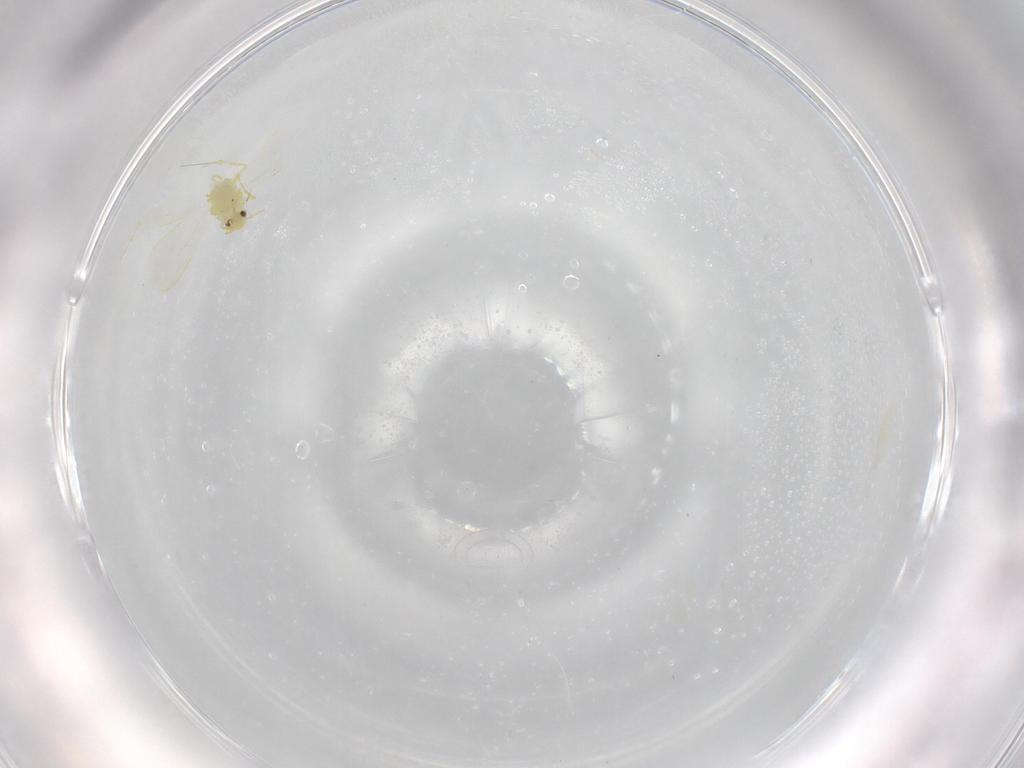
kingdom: Animalia
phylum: Arthropoda
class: Insecta
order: Hemiptera
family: Aleyrodidae
